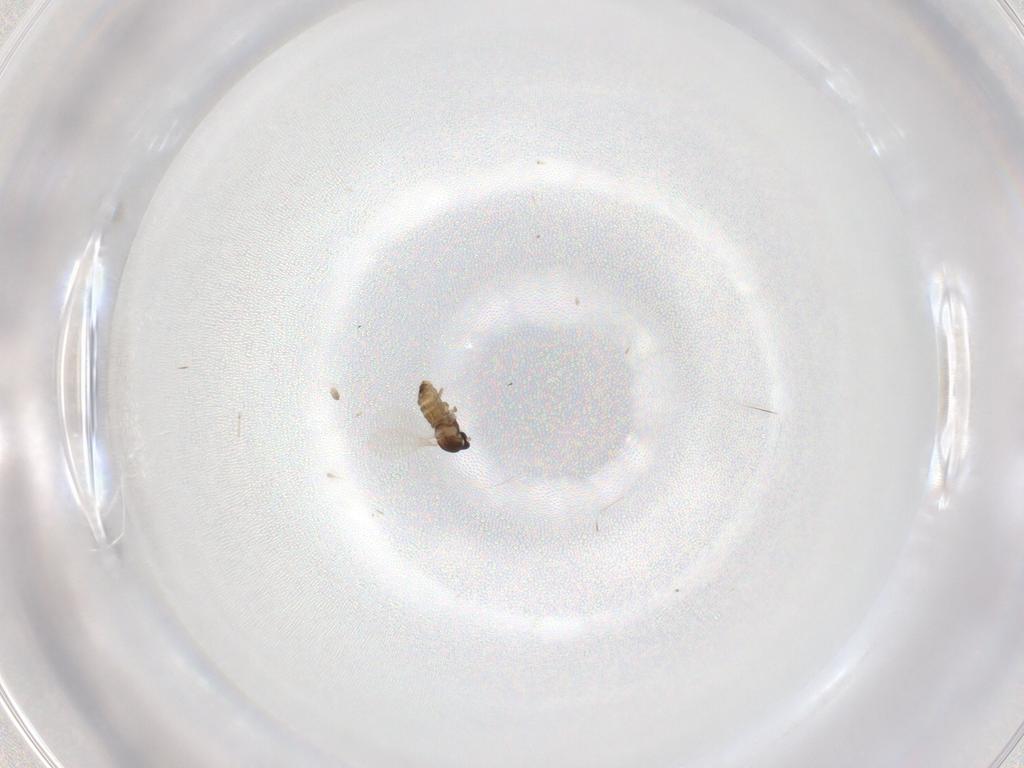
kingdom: Animalia
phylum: Arthropoda
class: Insecta
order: Diptera
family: Cecidomyiidae
